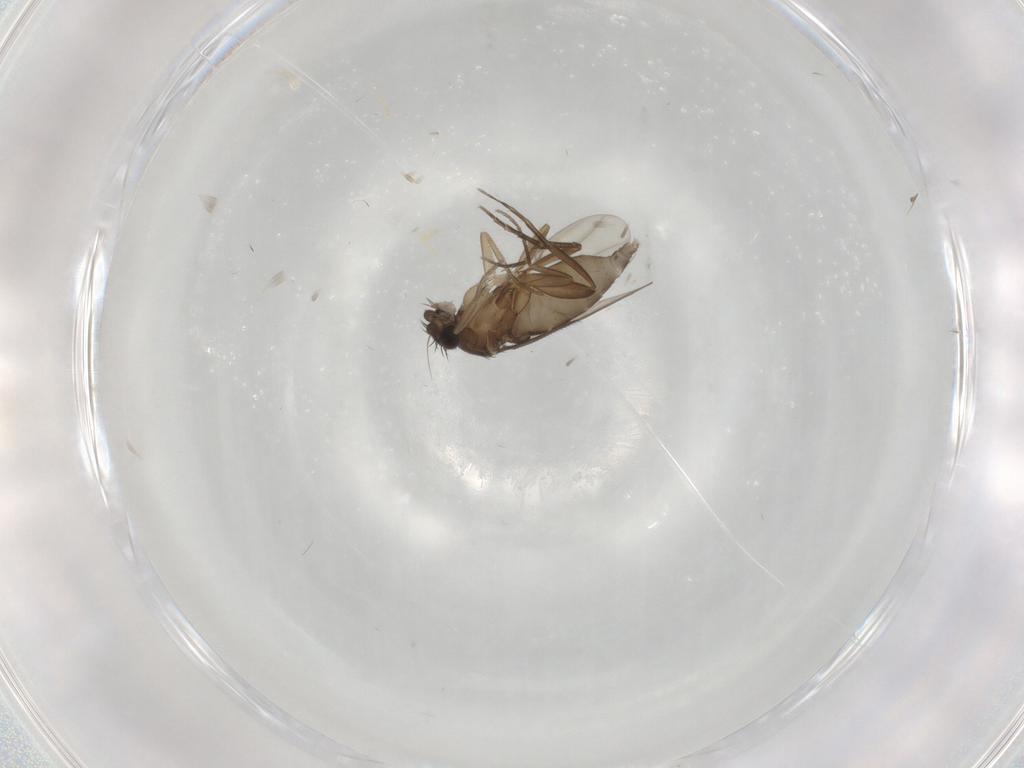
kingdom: Animalia
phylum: Arthropoda
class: Insecta
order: Diptera
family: Phoridae
